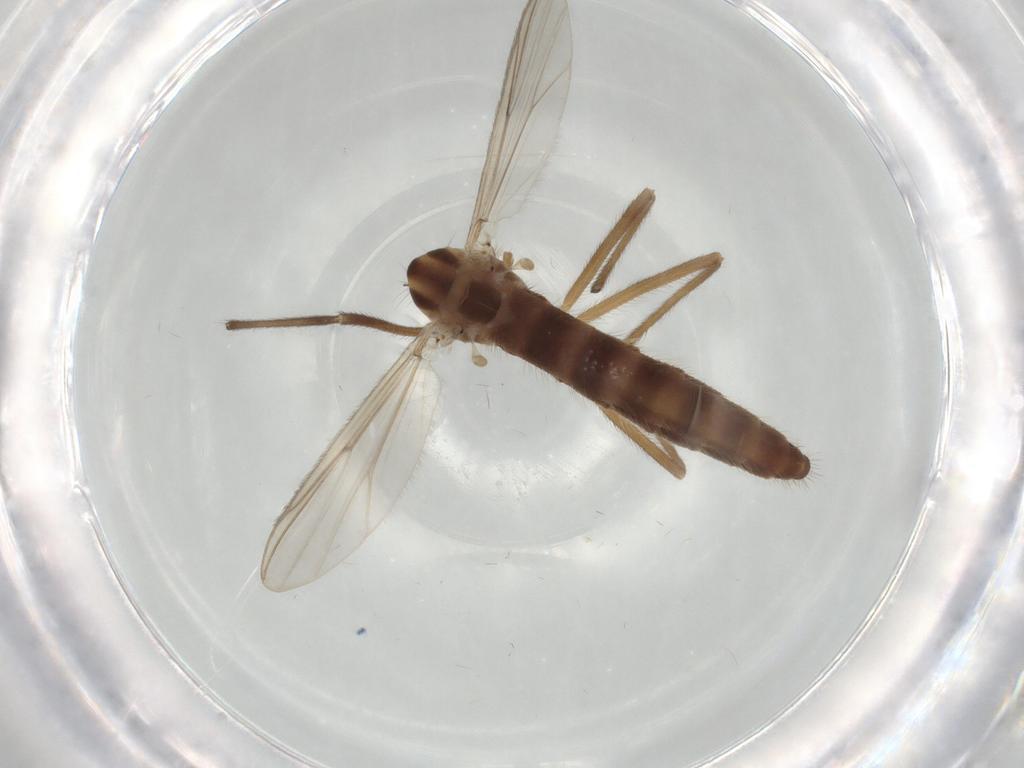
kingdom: Animalia
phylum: Arthropoda
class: Insecta
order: Diptera
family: Chironomidae
